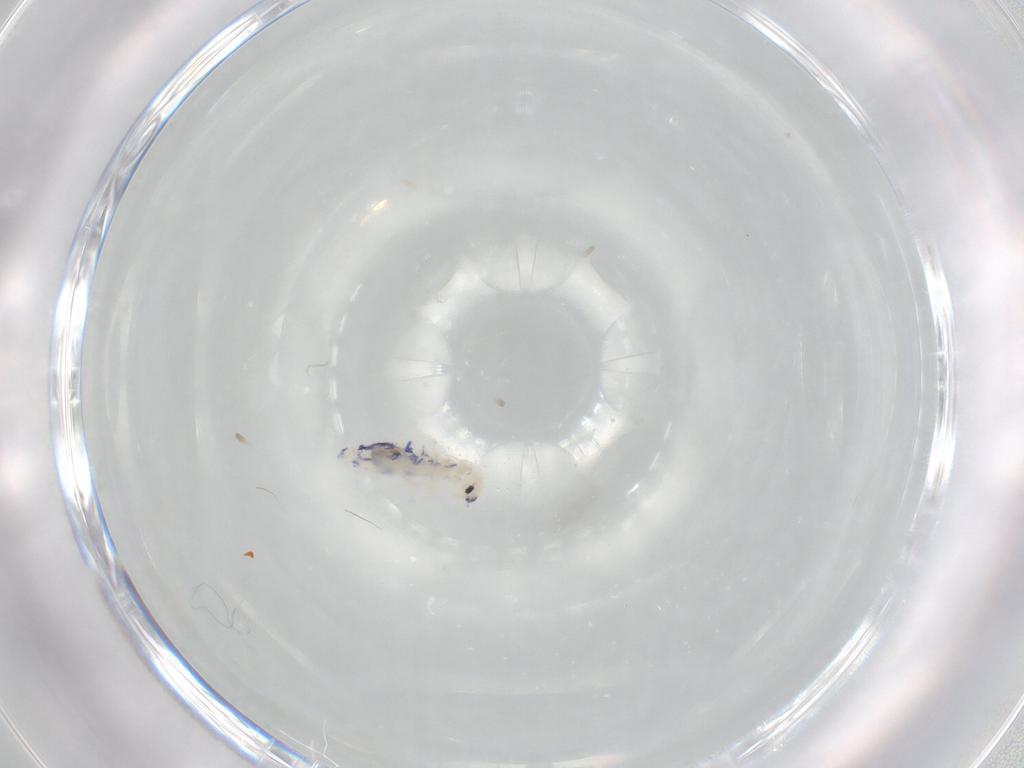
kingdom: Animalia
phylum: Arthropoda
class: Collembola
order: Entomobryomorpha
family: Entomobryidae
